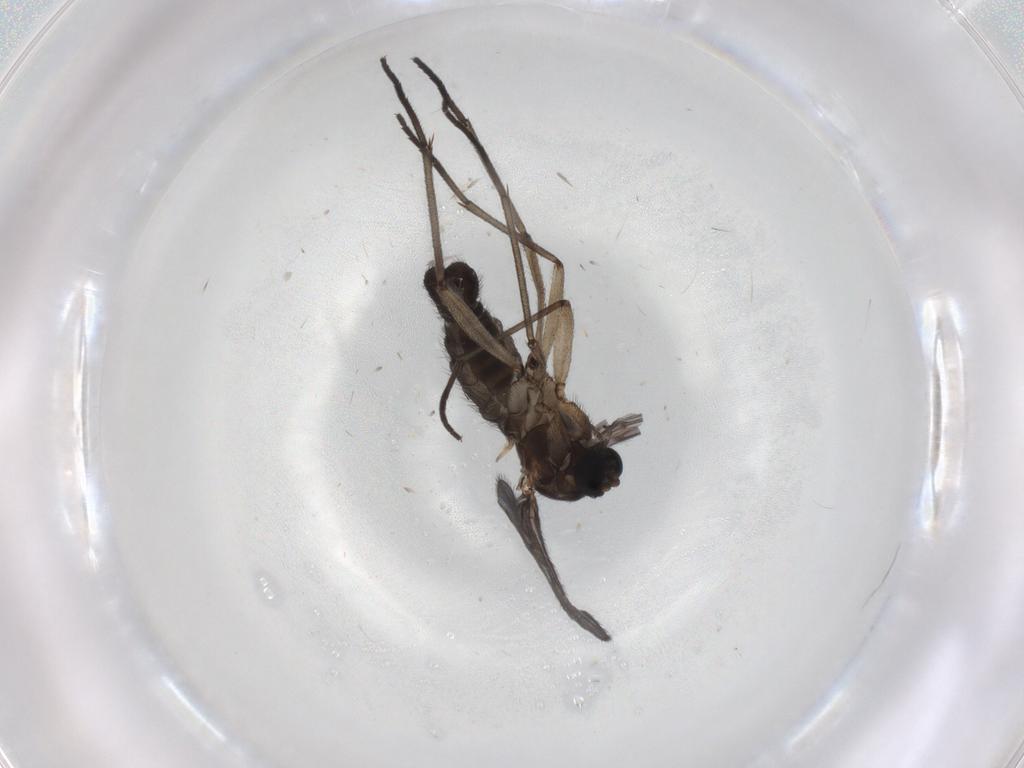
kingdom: Animalia
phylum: Arthropoda
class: Insecta
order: Diptera
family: Sciaridae
